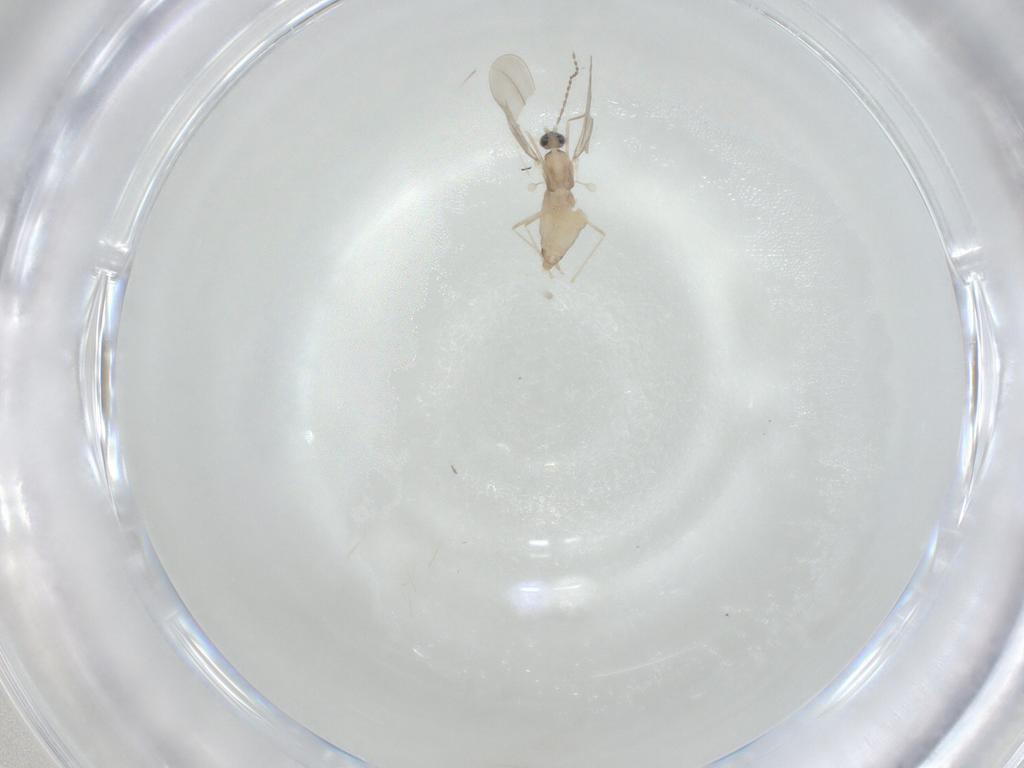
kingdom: Animalia
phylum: Arthropoda
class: Insecta
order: Diptera
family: Cecidomyiidae
